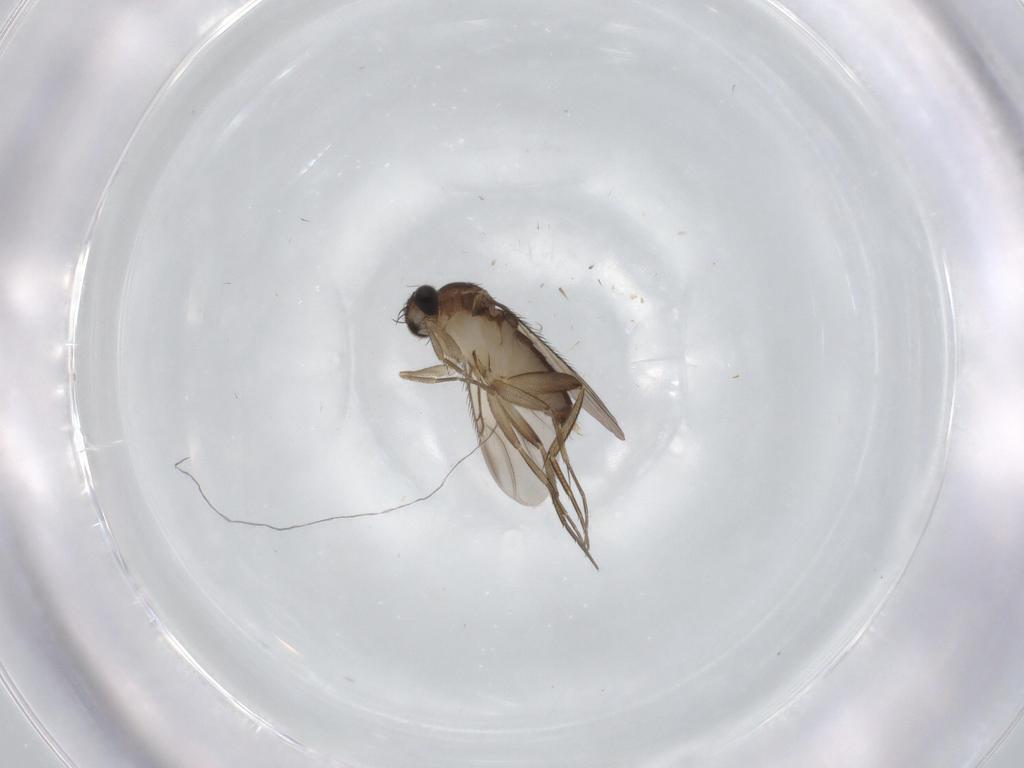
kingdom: Animalia
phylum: Arthropoda
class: Insecta
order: Diptera
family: Phoridae
